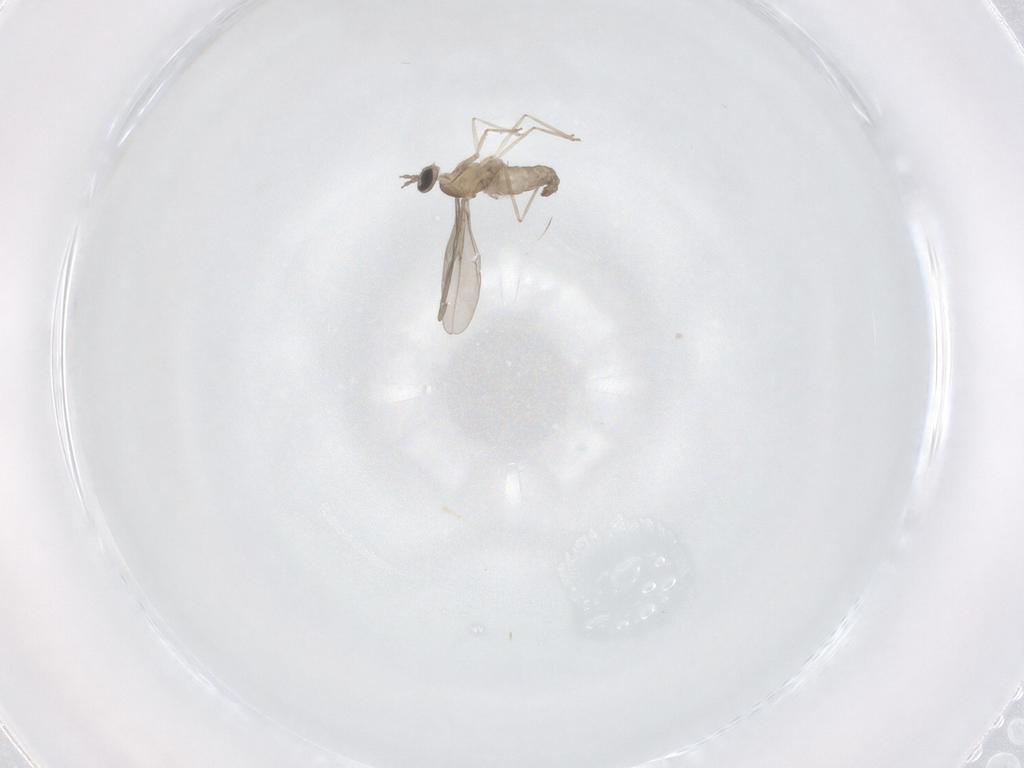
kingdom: Animalia
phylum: Arthropoda
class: Insecta
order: Diptera
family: Cecidomyiidae
